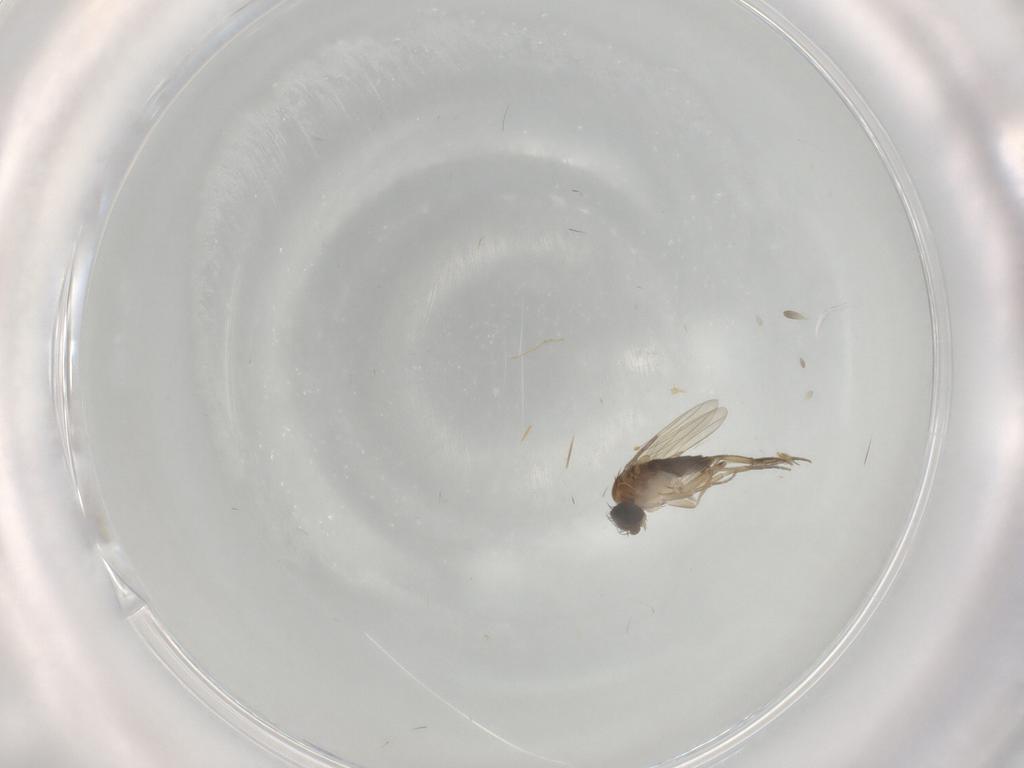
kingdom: Animalia
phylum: Arthropoda
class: Insecta
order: Diptera
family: Phoridae
